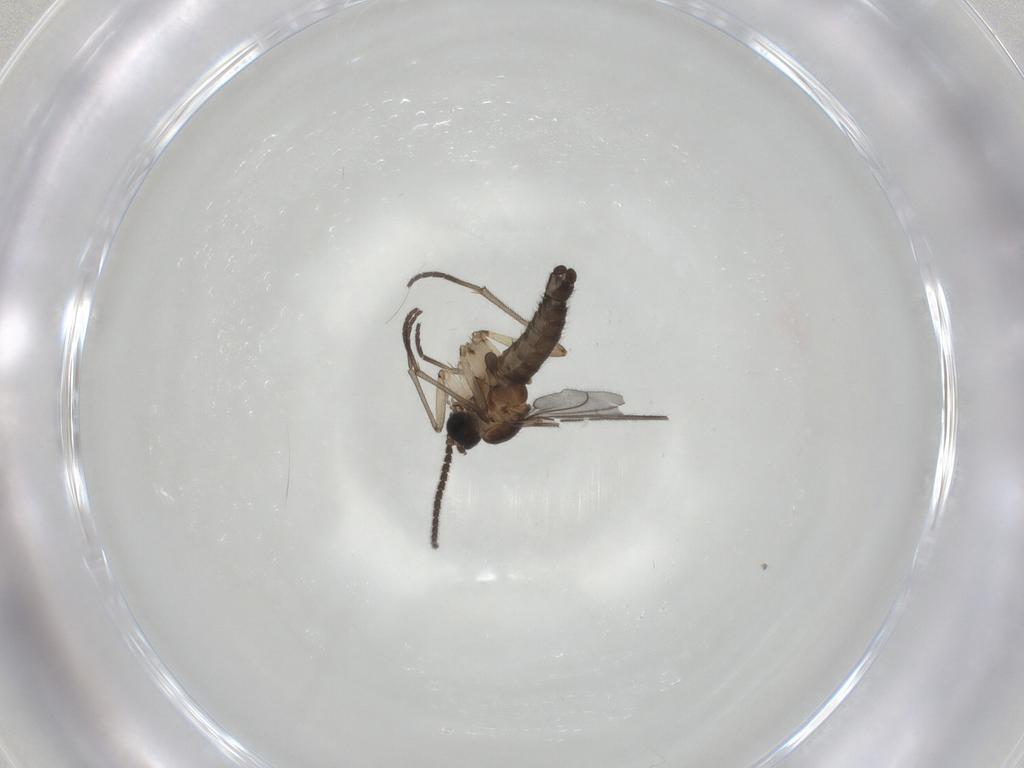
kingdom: Animalia
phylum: Arthropoda
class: Insecta
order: Diptera
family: Sciaridae
